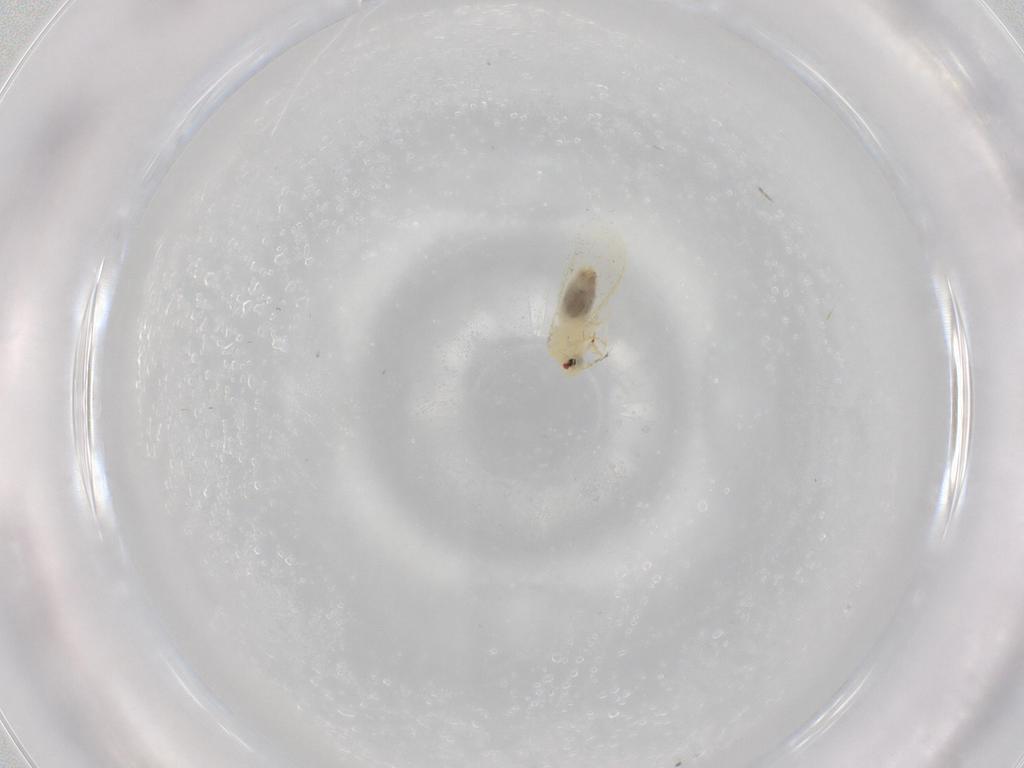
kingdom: Animalia
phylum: Arthropoda
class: Insecta
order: Hemiptera
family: Aleyrodidae
